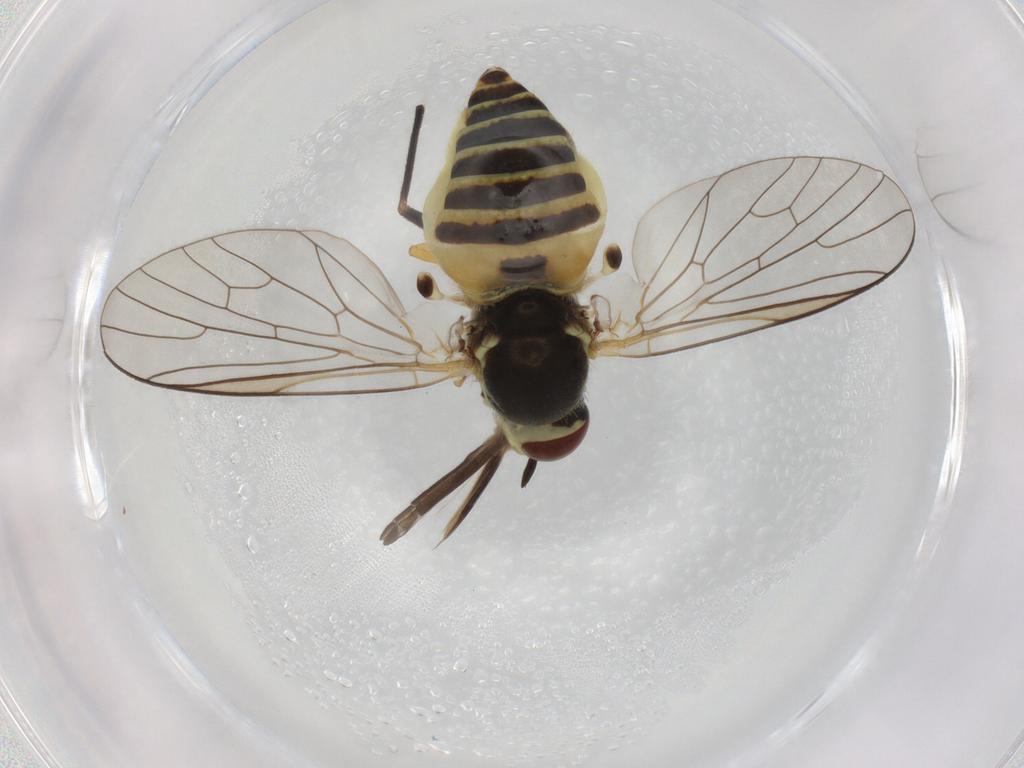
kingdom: Animalia
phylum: Arthropoda
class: Insecta
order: Diptera
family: Bombyliidae
